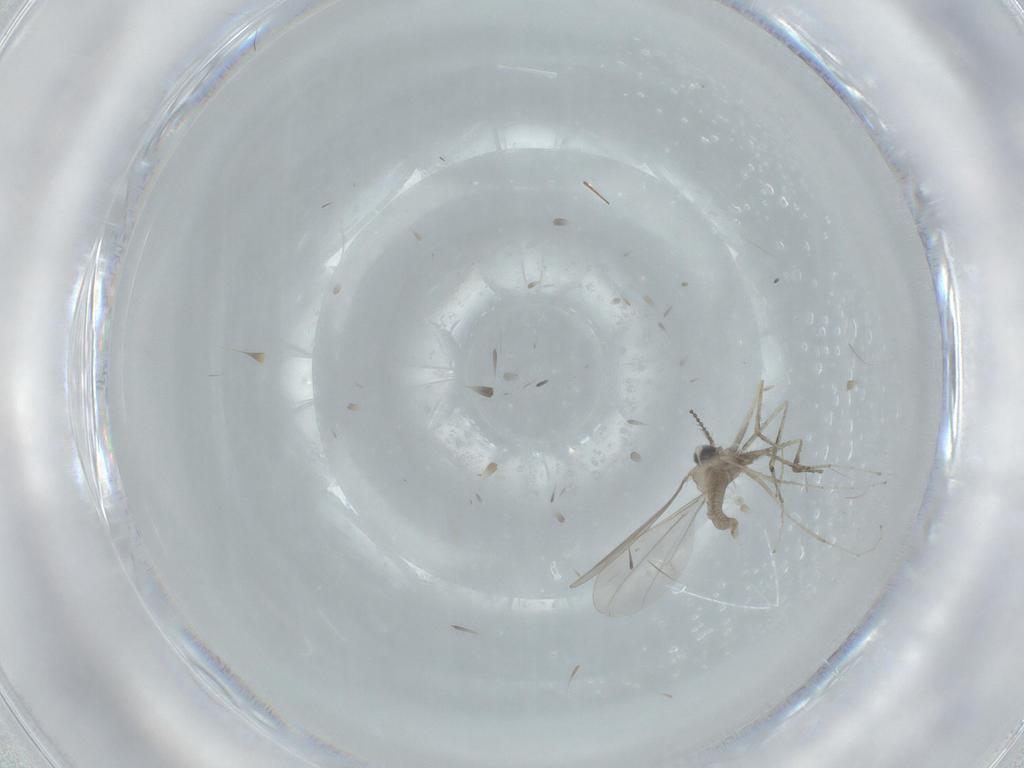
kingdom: Animalia
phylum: Arthropoda
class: Insecta
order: Diptera
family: Cecidomyiidae
